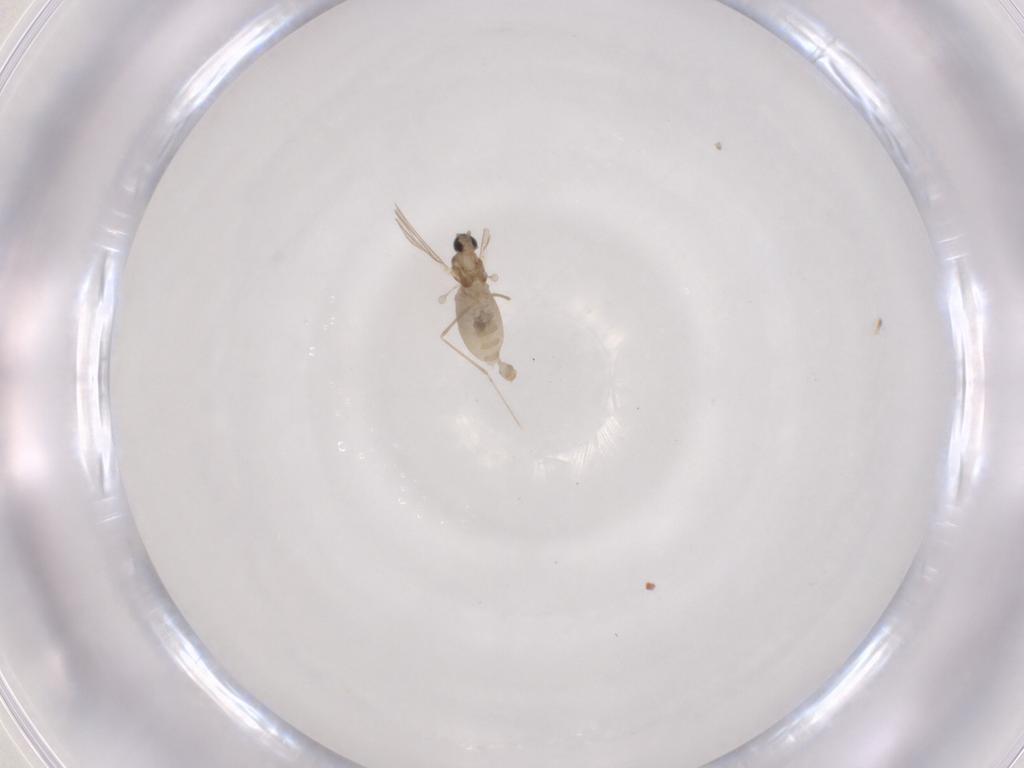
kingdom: Animalia
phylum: Arthropoda
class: Insecta
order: Diptera
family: Cecidomyiidae
